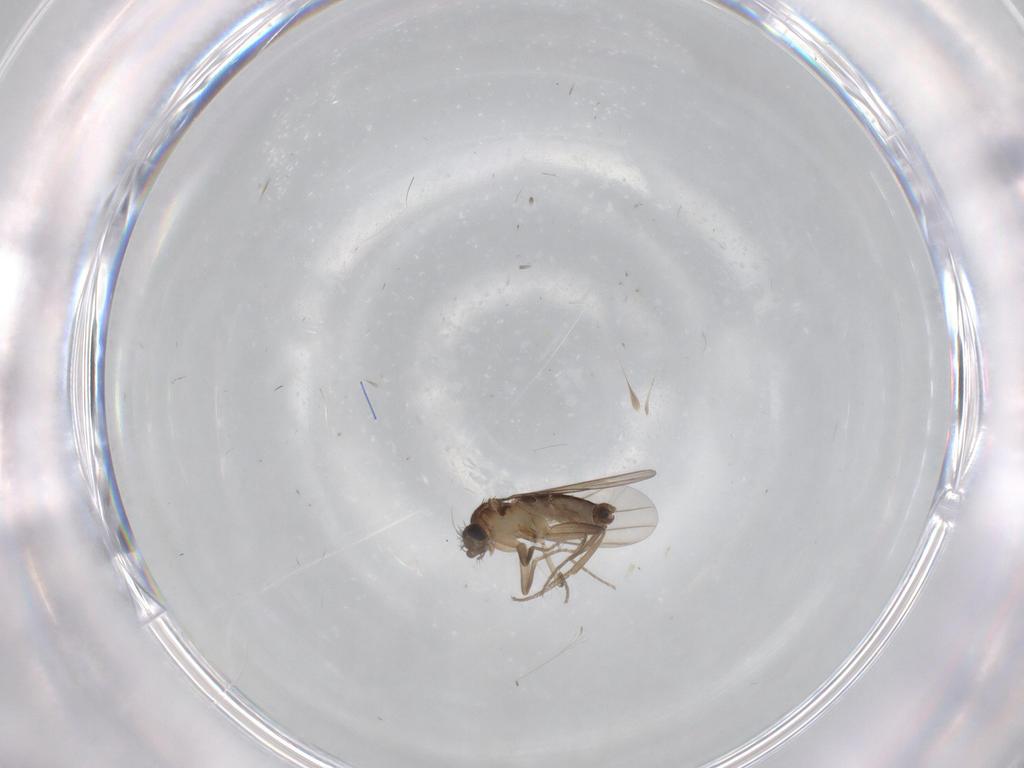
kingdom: Animalia
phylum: Arthropoda
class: Insecta
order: Diptera
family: Phoridae
